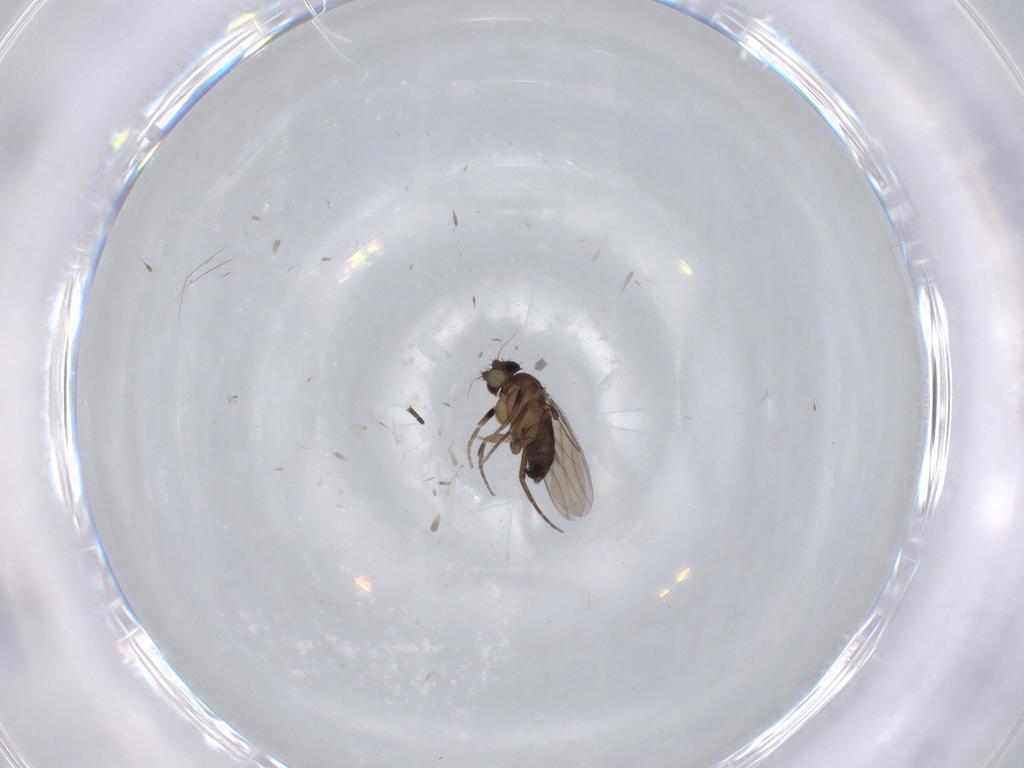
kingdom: Animalia
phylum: Arthropoda
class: Insecta
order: Diptera
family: Phoridae
